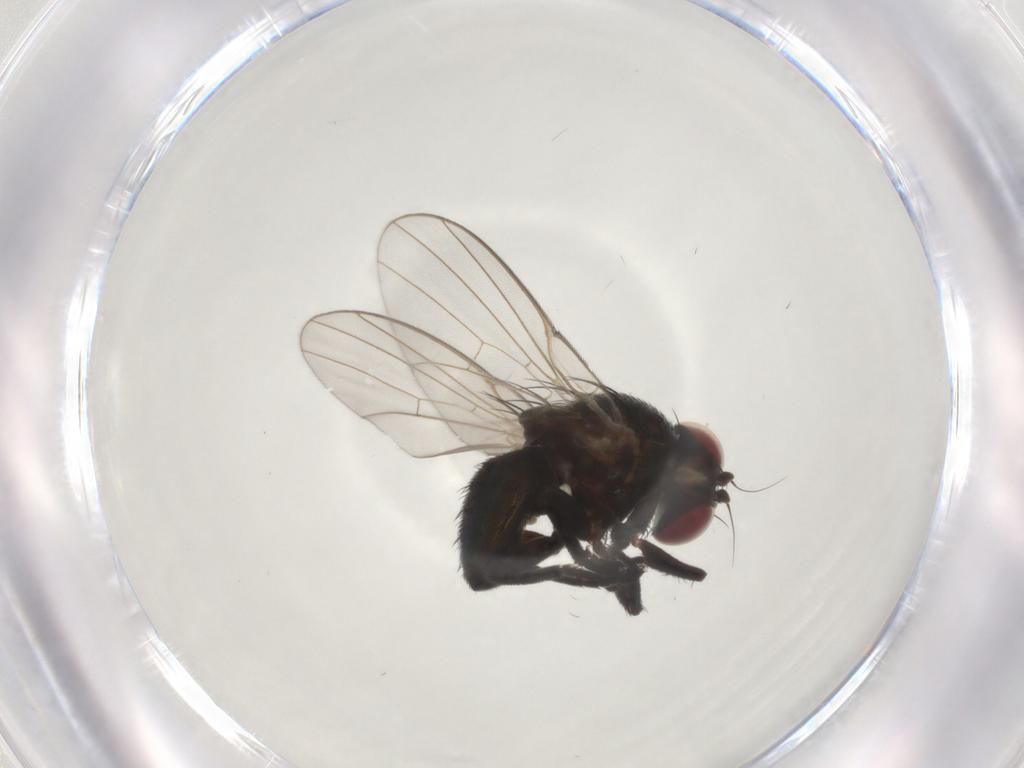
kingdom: Animalia
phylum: Arthropoda
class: Insecta
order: Diptera
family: Agromyzidae
